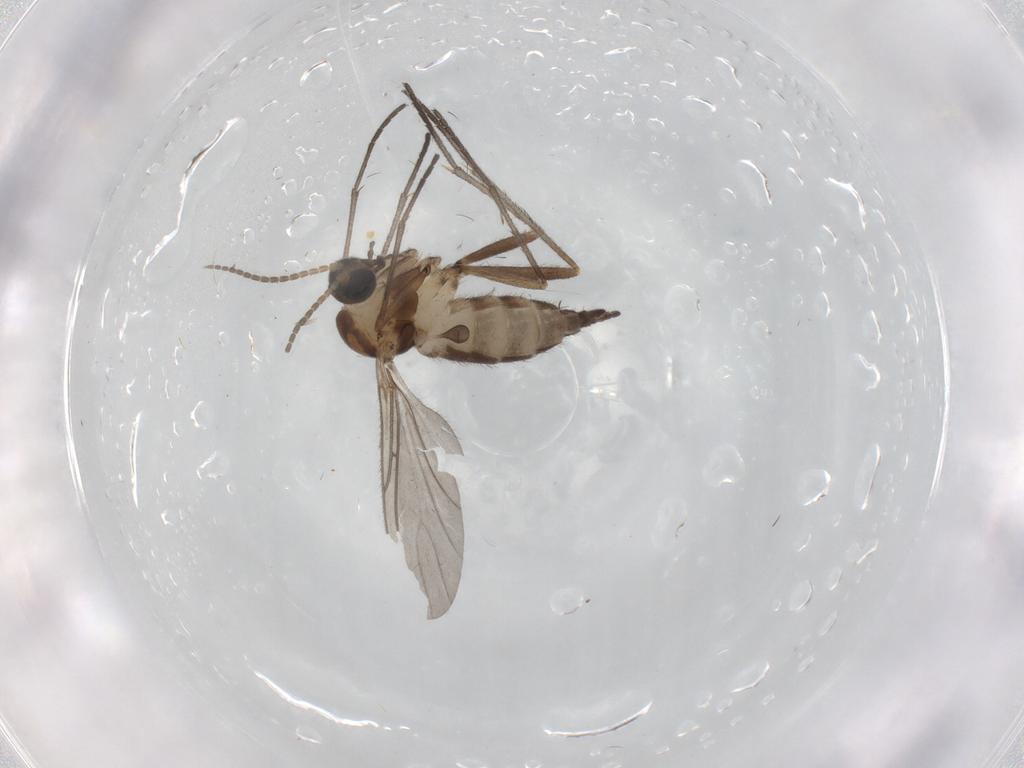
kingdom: Animalia
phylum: Arthropoda
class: Insecta
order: Diptera
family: Sciaridae
